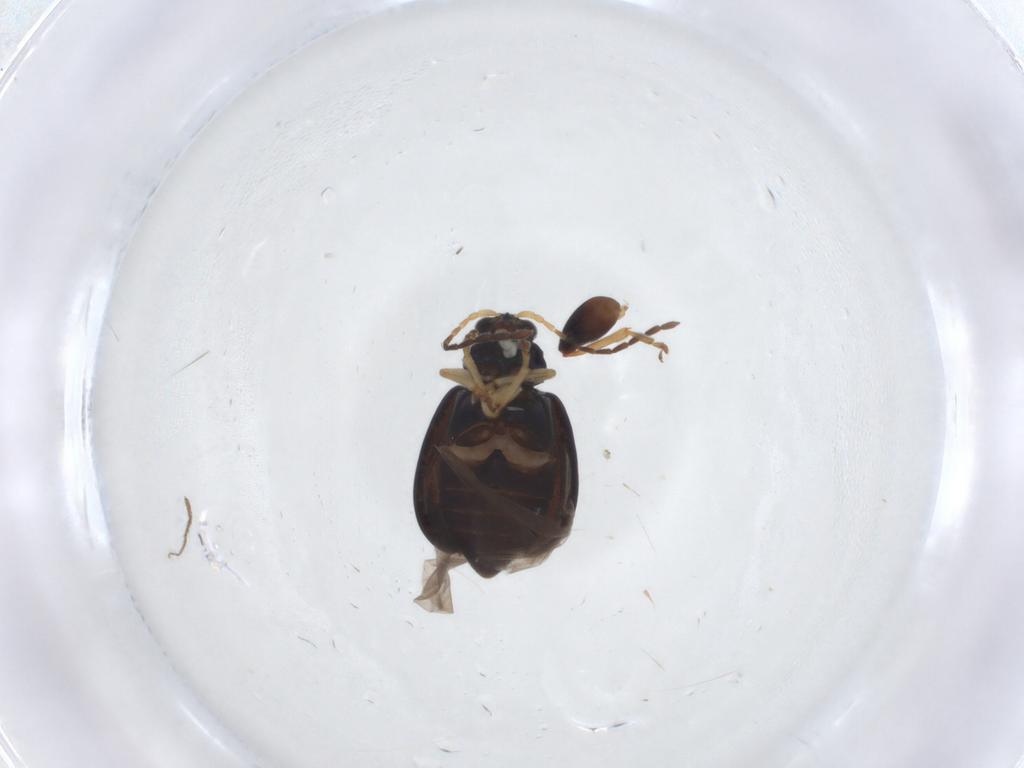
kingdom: Animalia
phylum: Arthropoda
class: Insecta
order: Coleoptera
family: Chrysomelidae
